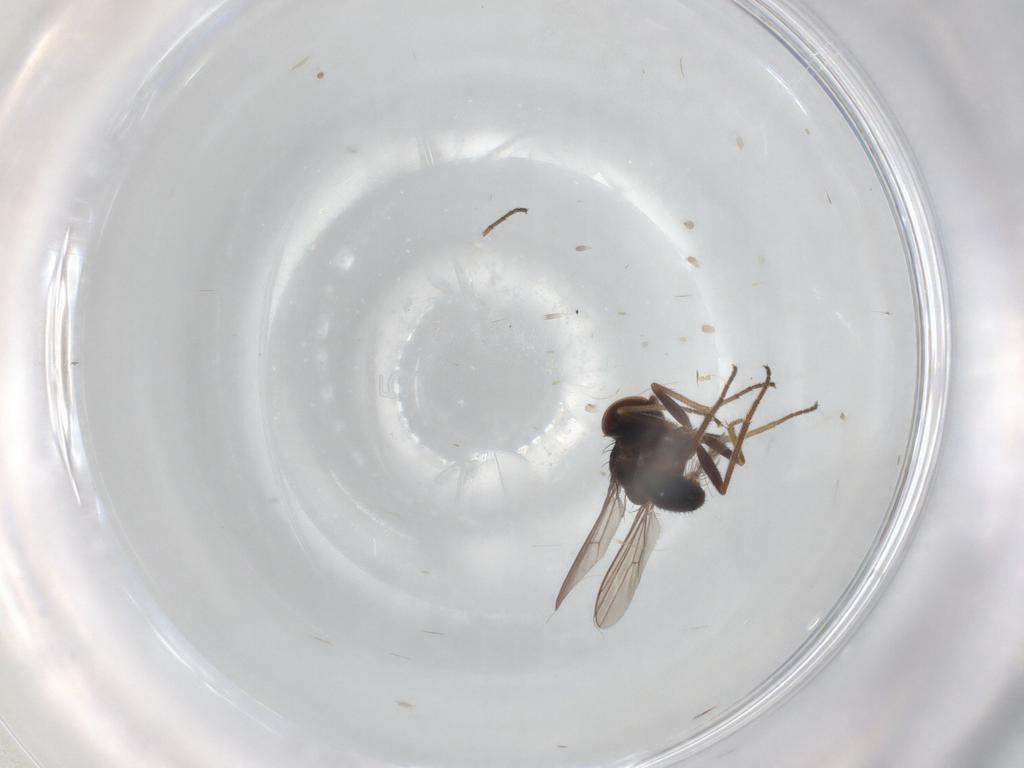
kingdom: Animalia
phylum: Arthropoda
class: Insecta
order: Diptera
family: Dolichopodidae
